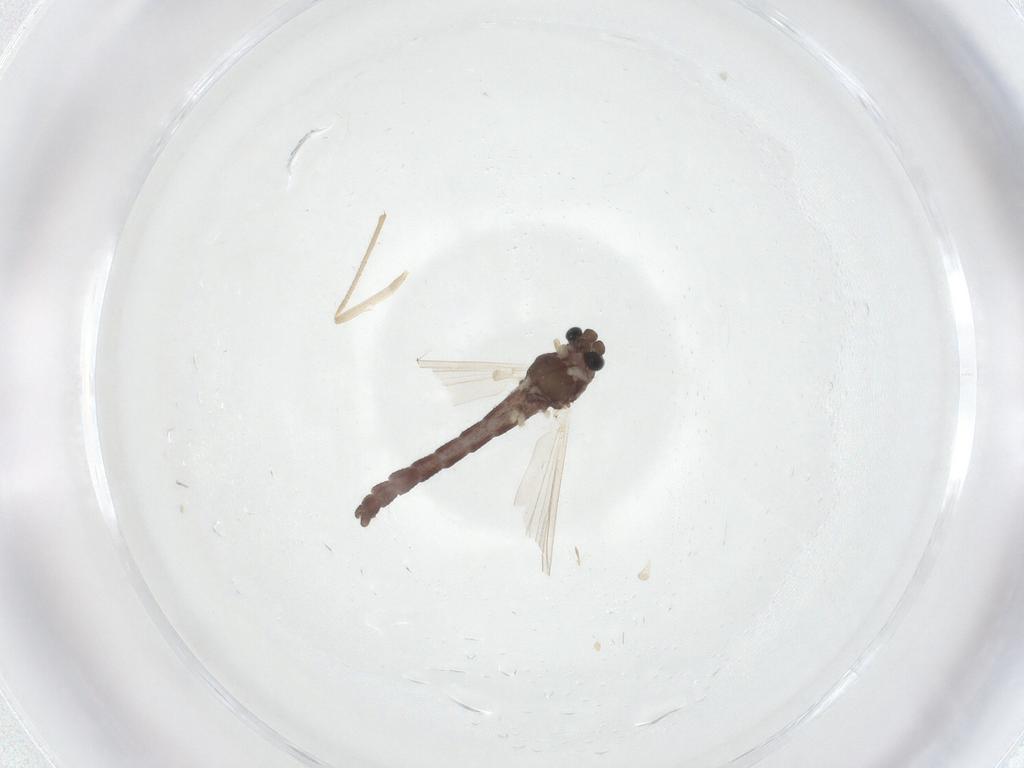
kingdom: Animalia
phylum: Arthropoda
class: Insecta
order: Diptera
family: Chironomidae
